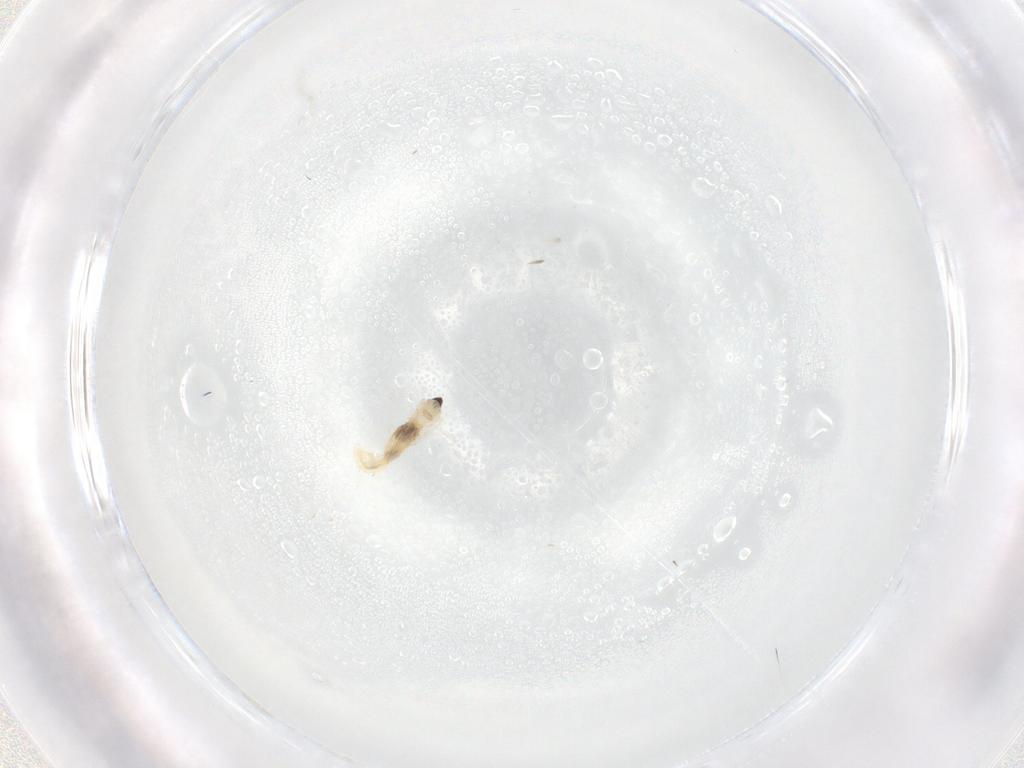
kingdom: Animalia
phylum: Arthropoda
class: Insecta
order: Diptera
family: Cecidomyiidae
